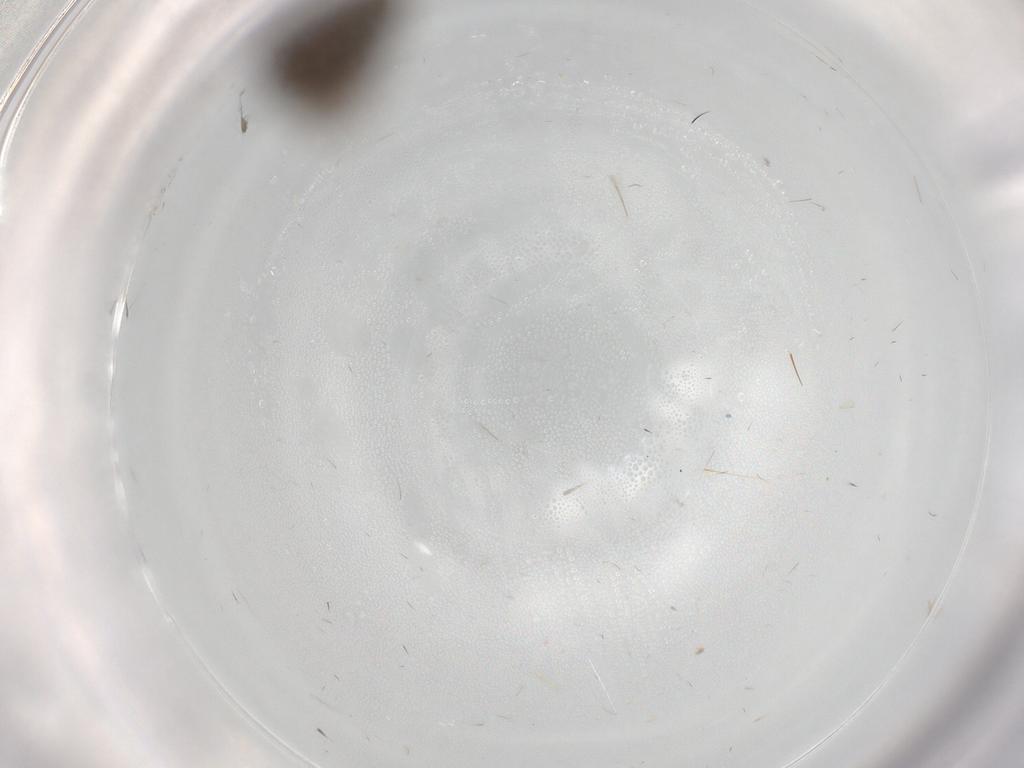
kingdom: Animalia
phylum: Arthropoda
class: Insecta
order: Diptera
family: Psychodidae
